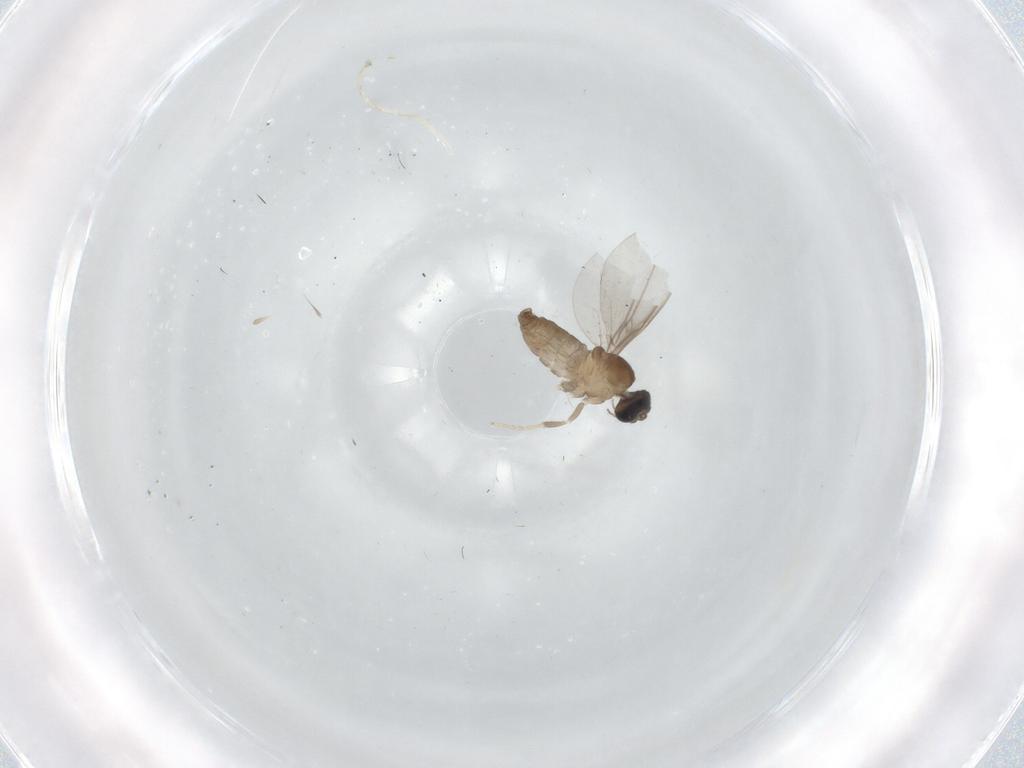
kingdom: Animalia
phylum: Arthropoda
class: Insecta
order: Diptera
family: Cecidomyiidae
